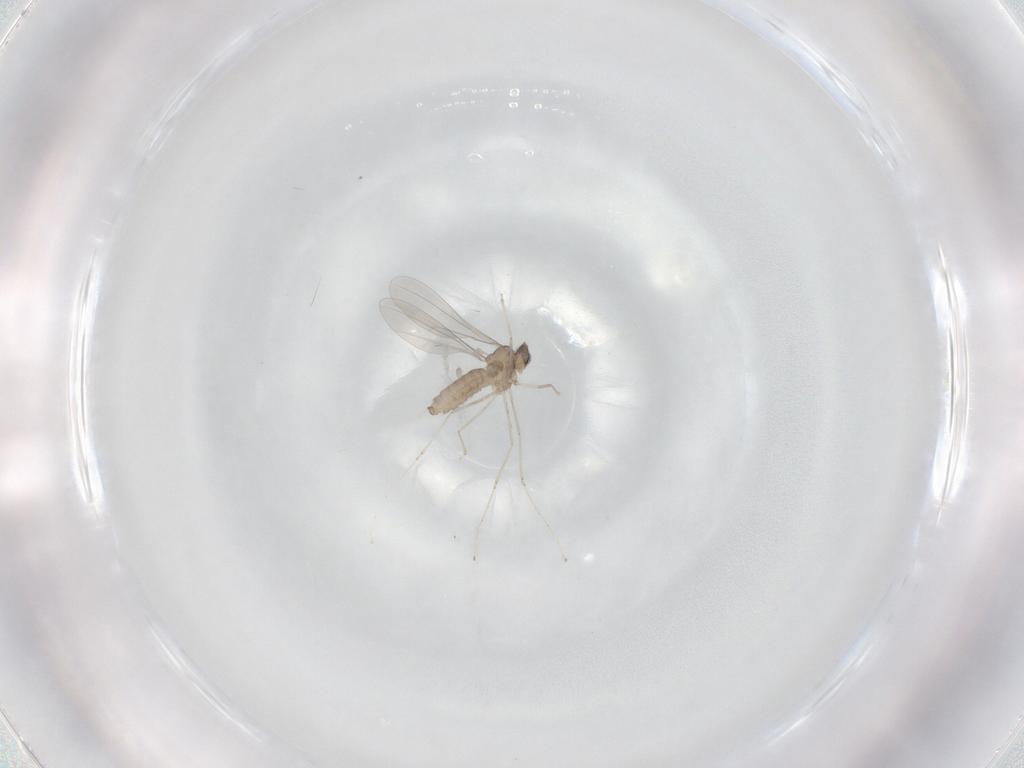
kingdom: Animalia
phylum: Arthropoda
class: Insecta
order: Diptera
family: Cecidomyiidae
